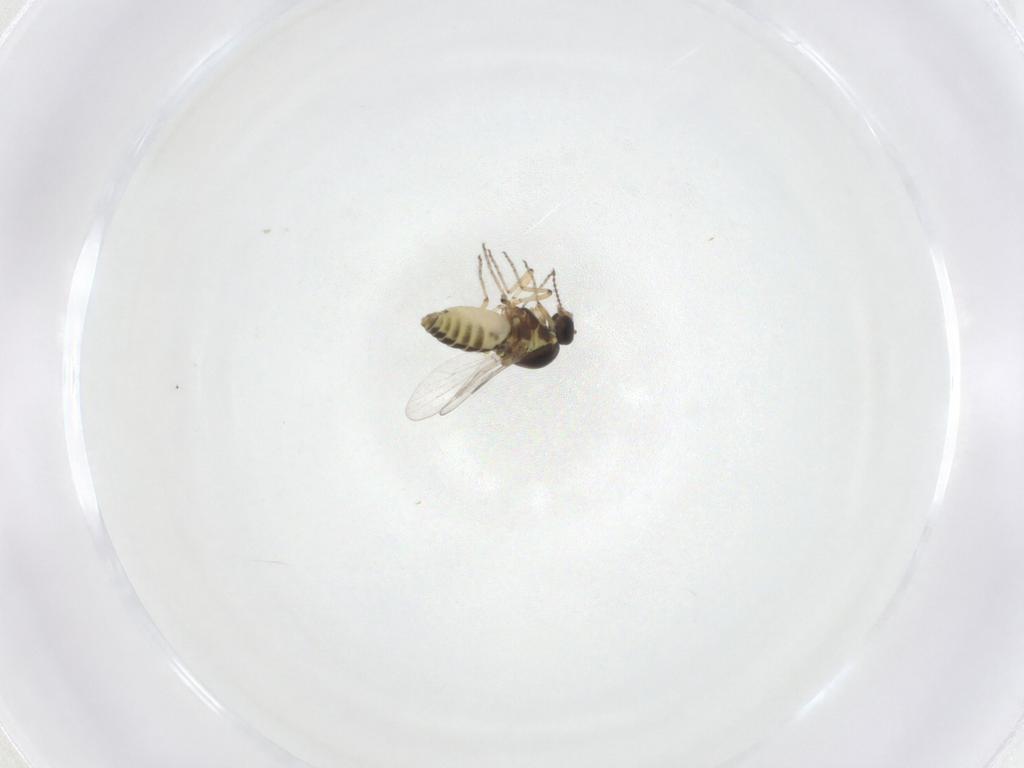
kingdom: Animalia
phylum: Arthropoda
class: Insecta
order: Diptera
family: Ceratopogonidae
